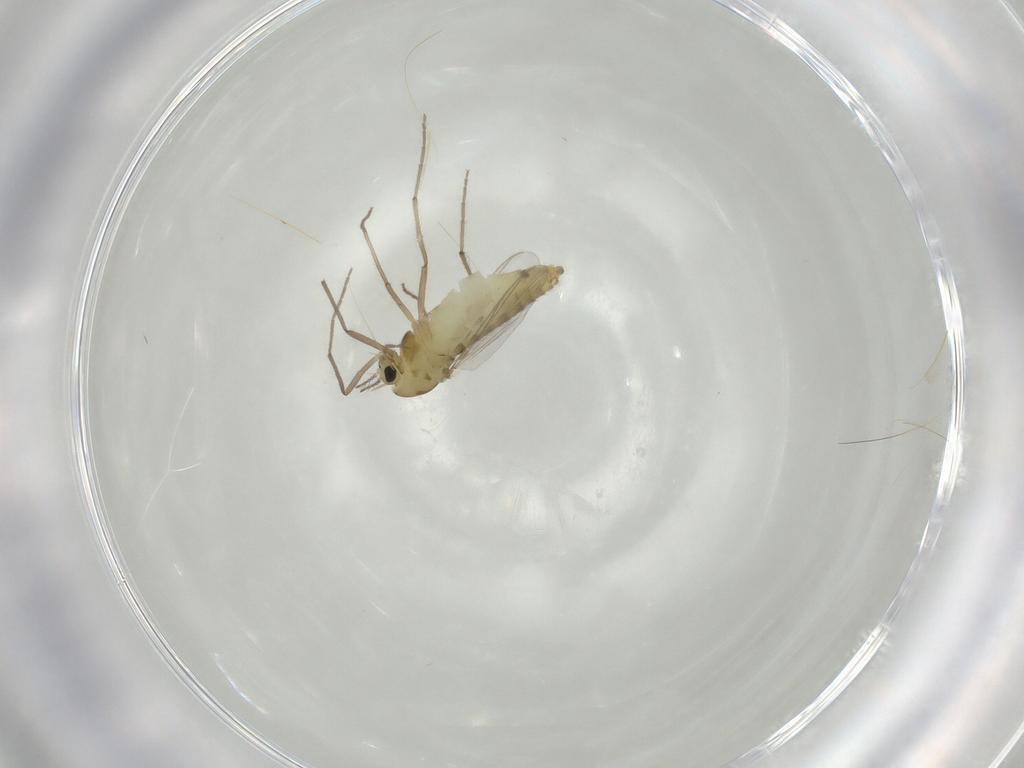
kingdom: Animalia
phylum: Arthropoda
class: Insecta
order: Diptera
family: Chironomidae
